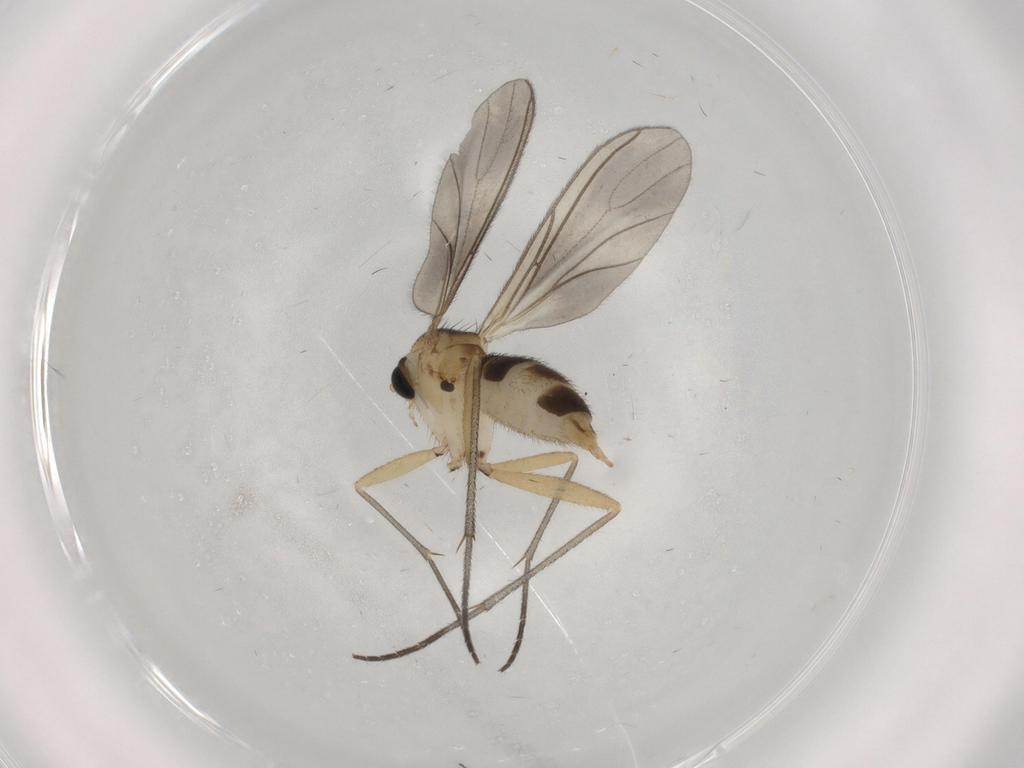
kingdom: Animalia
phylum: Arthropoda
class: Insecta
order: Diptera
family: Sciaridae
